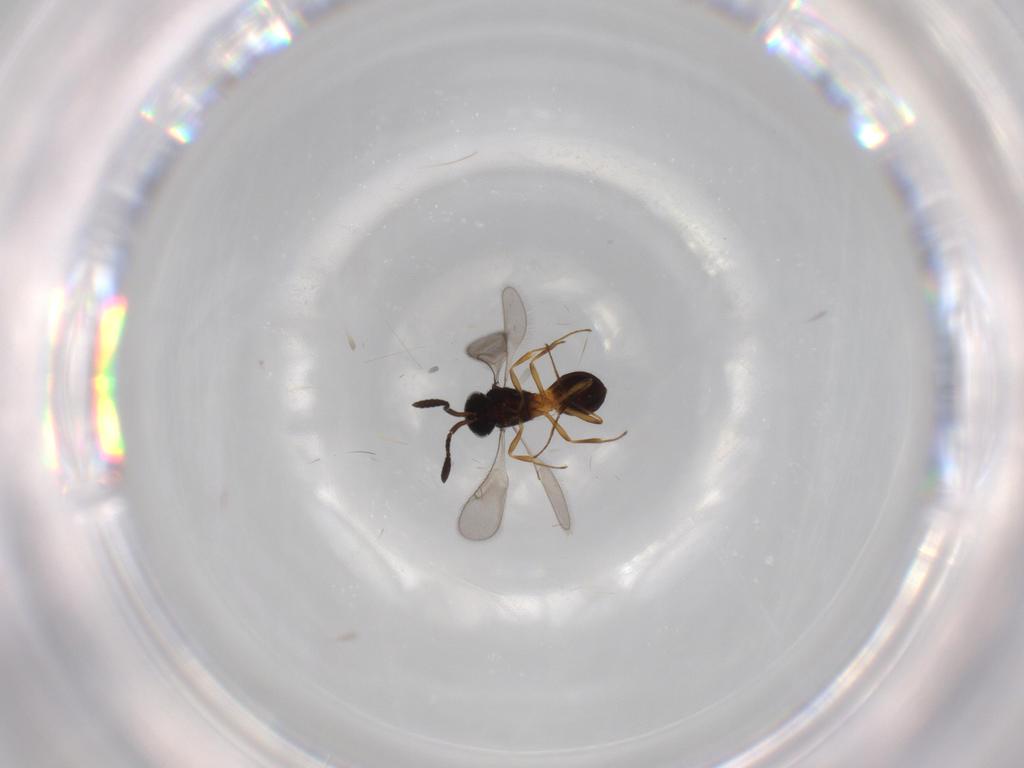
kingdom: Animalia
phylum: Arthropoda
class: Insecta
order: Hymenoptera
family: Scelionidae
